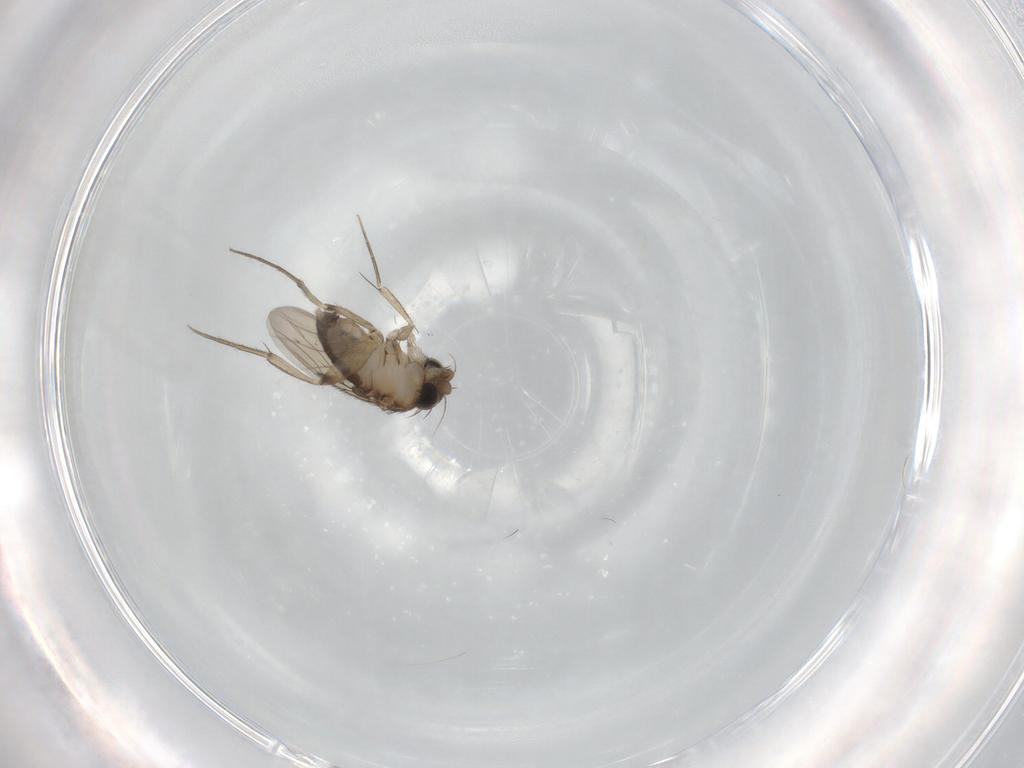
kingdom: Animalia
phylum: Arthropoda
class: Insecta
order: Diptera
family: Phoridae
